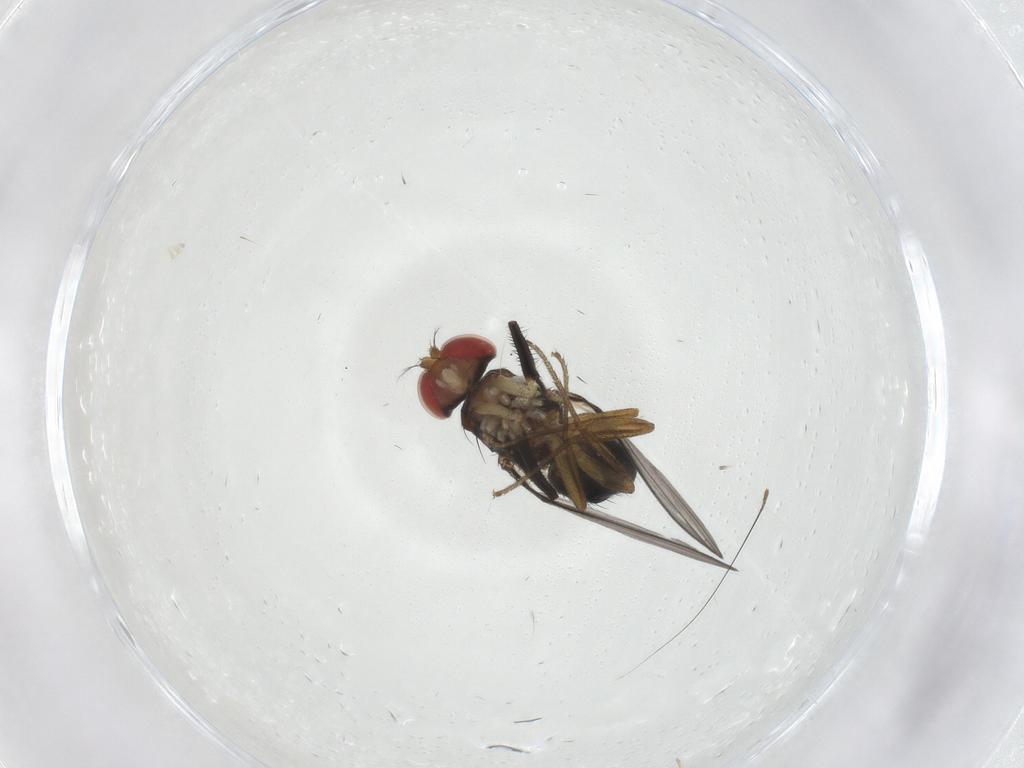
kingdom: Animalia
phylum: Arthropoda
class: Insecta
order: Diptera
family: Drosophilidae
